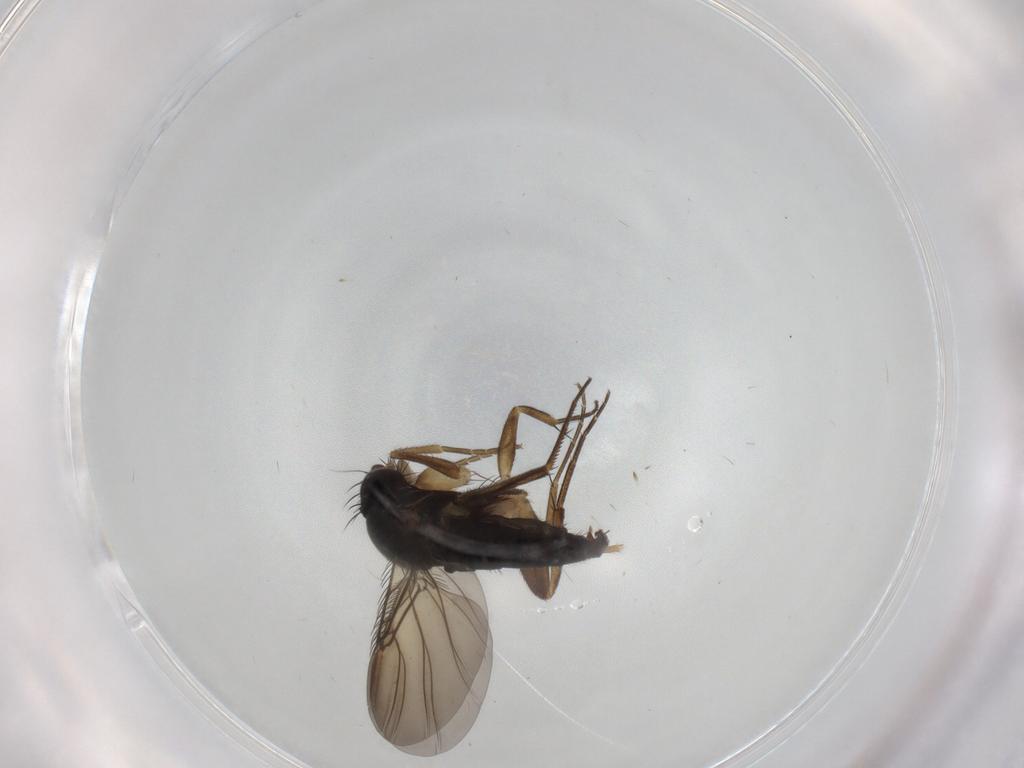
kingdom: Animalia
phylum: Arthropoda
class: Insecta
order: Diptera
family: Phoridae
